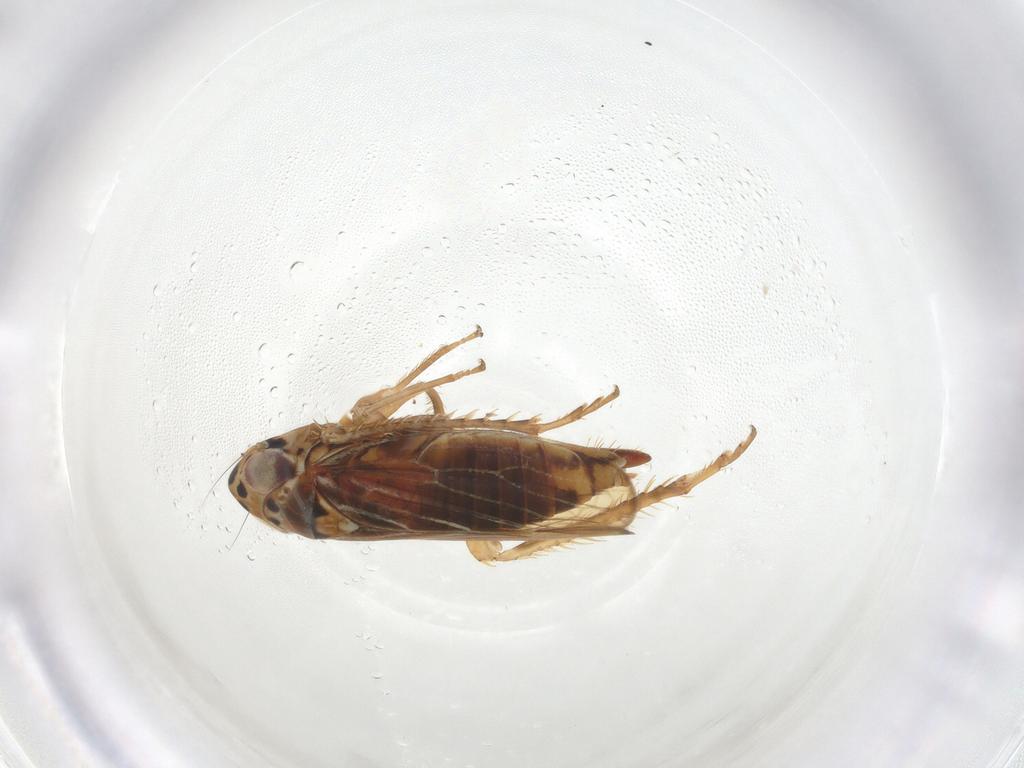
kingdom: Animalia
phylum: Arthropoda
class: Insecta
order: Hemiptera
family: Cicadellidae
